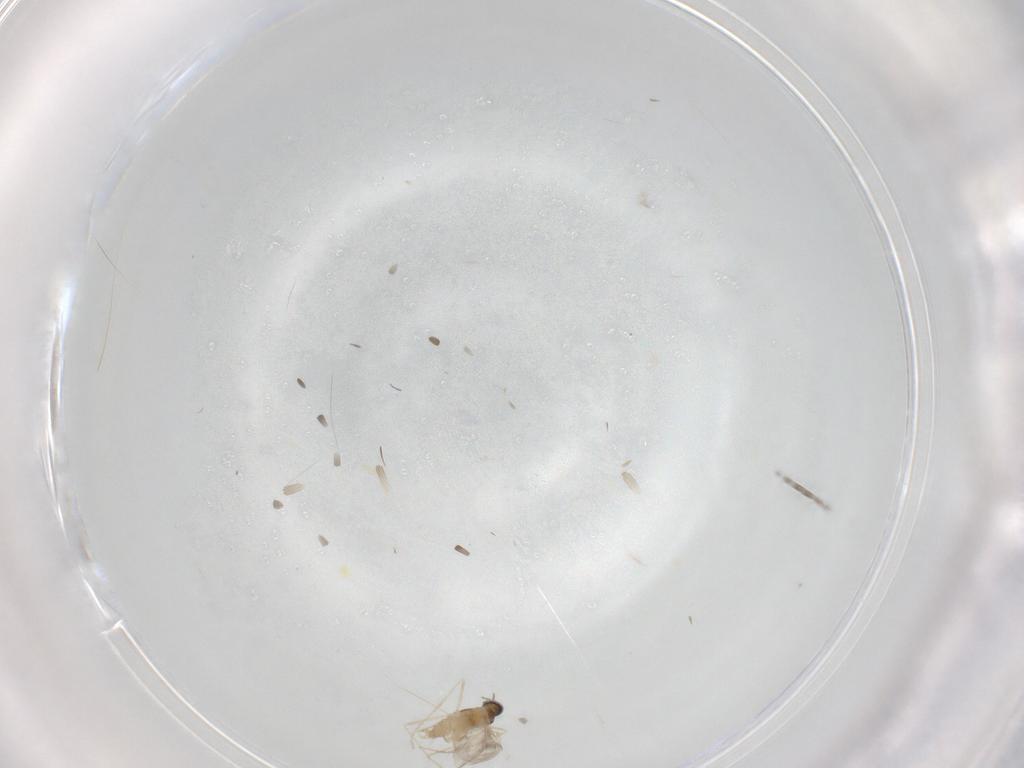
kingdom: Animalia
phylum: Arthropoda
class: Insecta
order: Diptera
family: Cecidomyiidae
